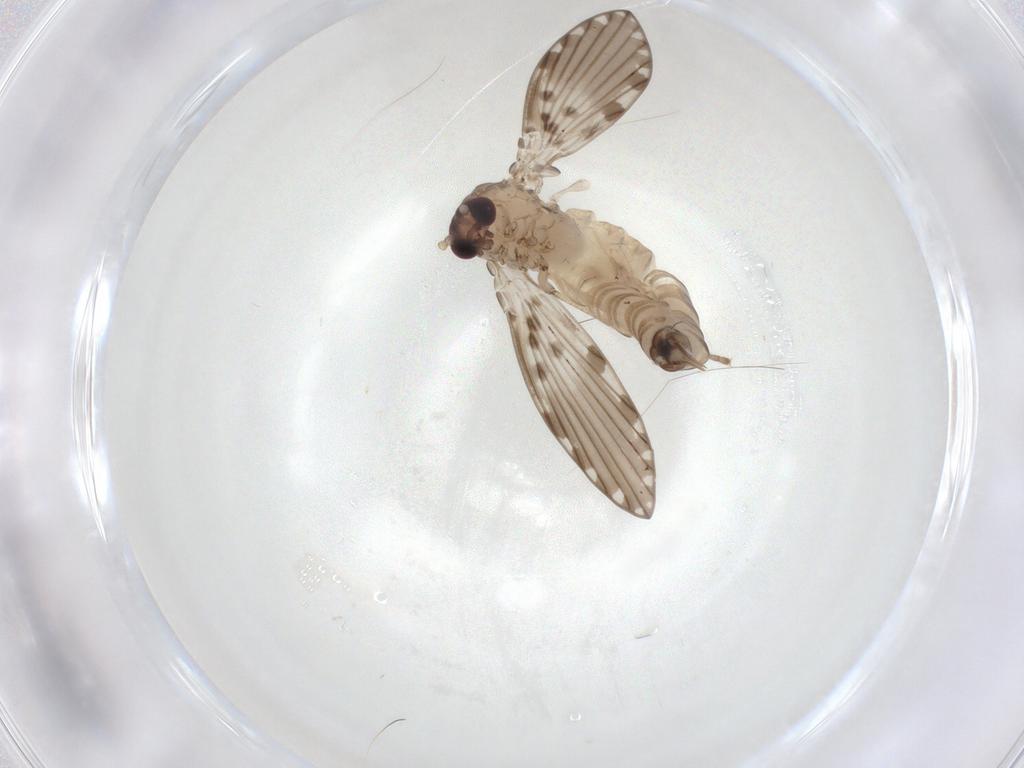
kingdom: Animalia
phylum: Arthropoda
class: Insecta
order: Diptera
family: Psychodidae
